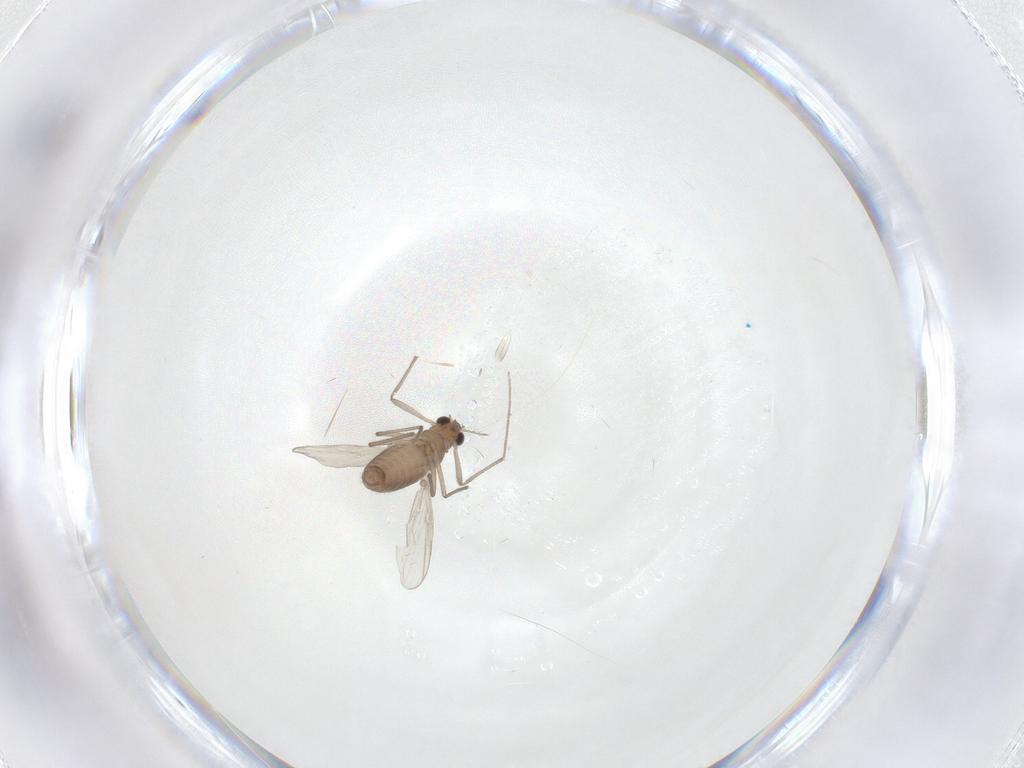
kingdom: Animalia
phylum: Arthropoda
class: Insecta
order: Diptera
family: Chironomidae
